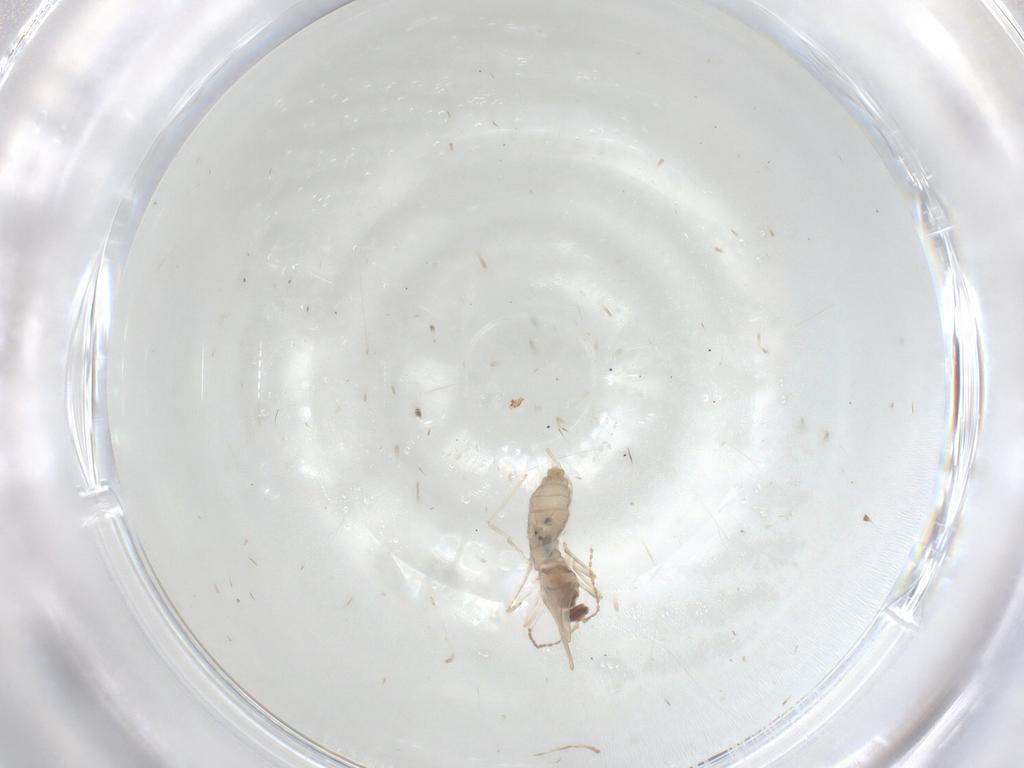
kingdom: Animalia
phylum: Arthropoda
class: Insecta
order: Diptera
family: Cecidomyiidae
